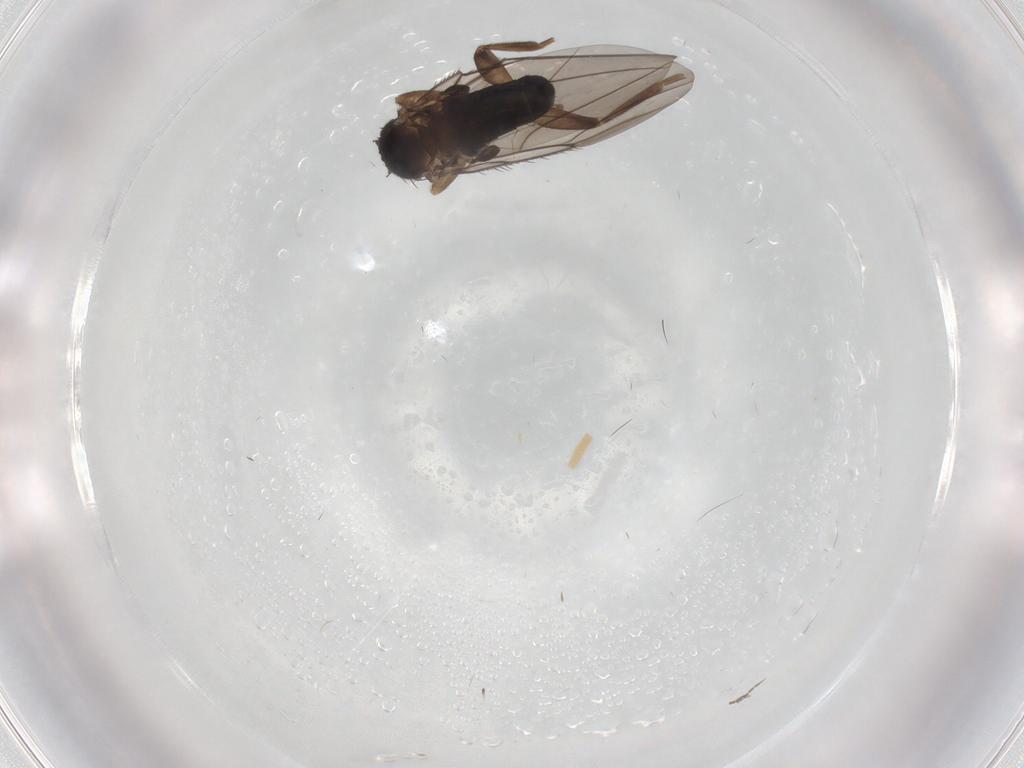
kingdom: Animalia
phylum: Arthropoda
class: Insecta
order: Diptera
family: Phoridae
